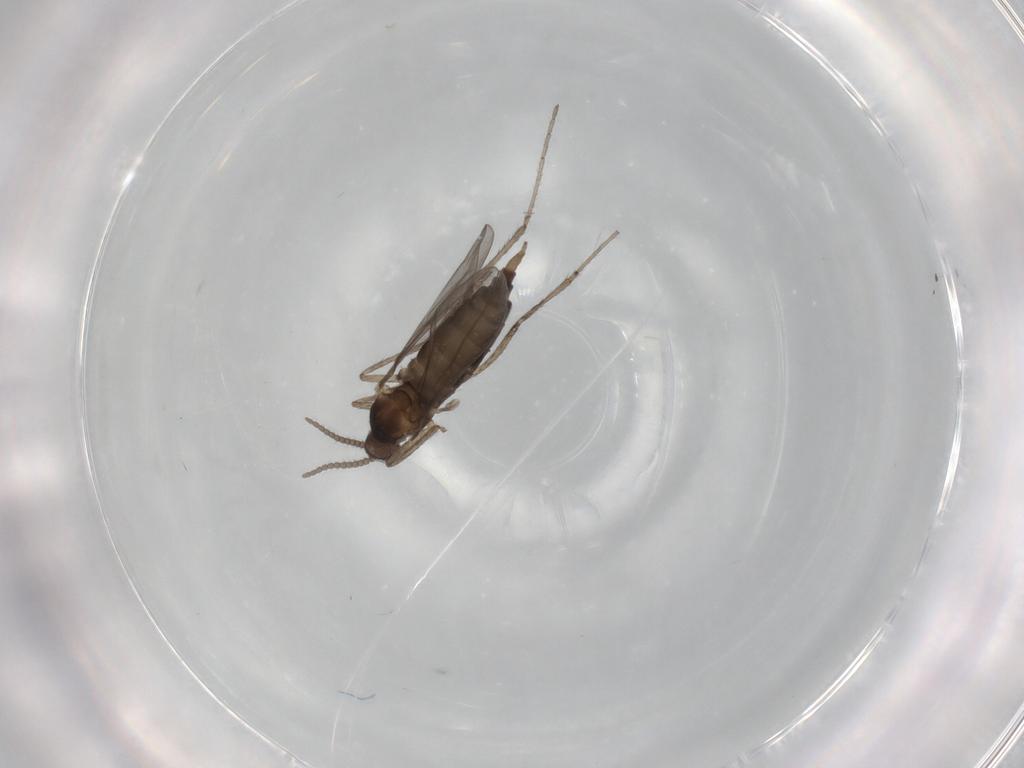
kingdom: Animalia
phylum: Arthropoda
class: Insecta
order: Diptera
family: Cecidomyiidae
